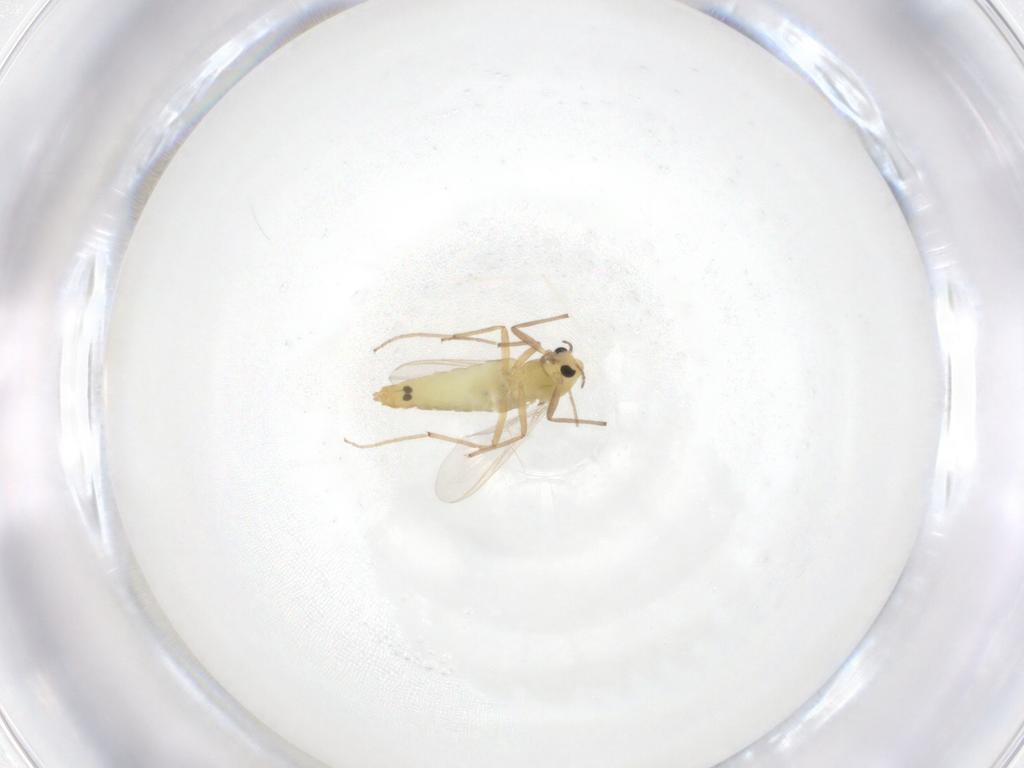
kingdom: Animalia
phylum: Arthropoda
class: Insecta
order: Diptera
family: Chironomidae
